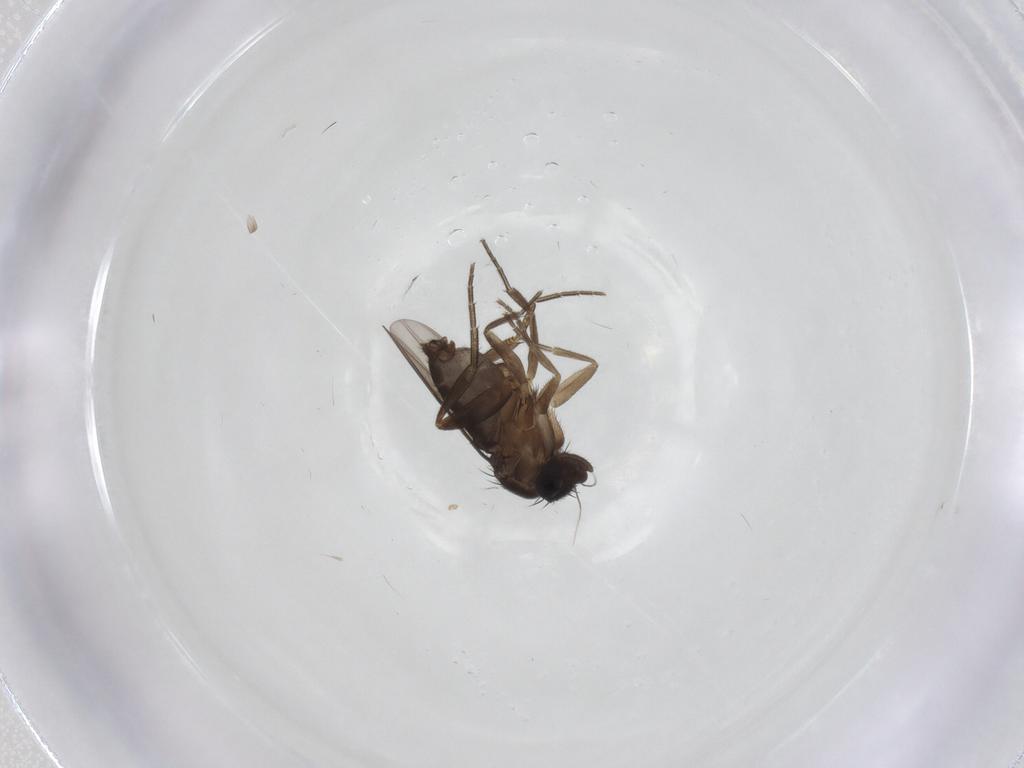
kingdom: Animalia
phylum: Arthropoda
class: Insecta
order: Diptera
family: Phoridae
